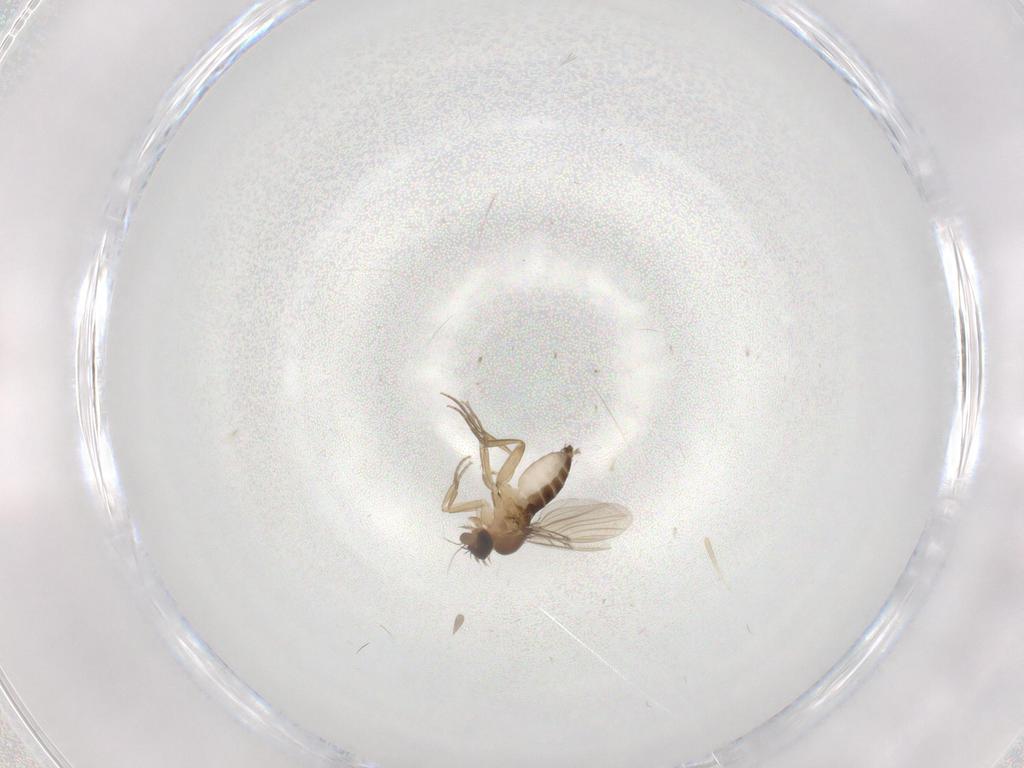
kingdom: Animalia
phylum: Arthropoda
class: Insecta
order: Diptera
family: Phoridae
